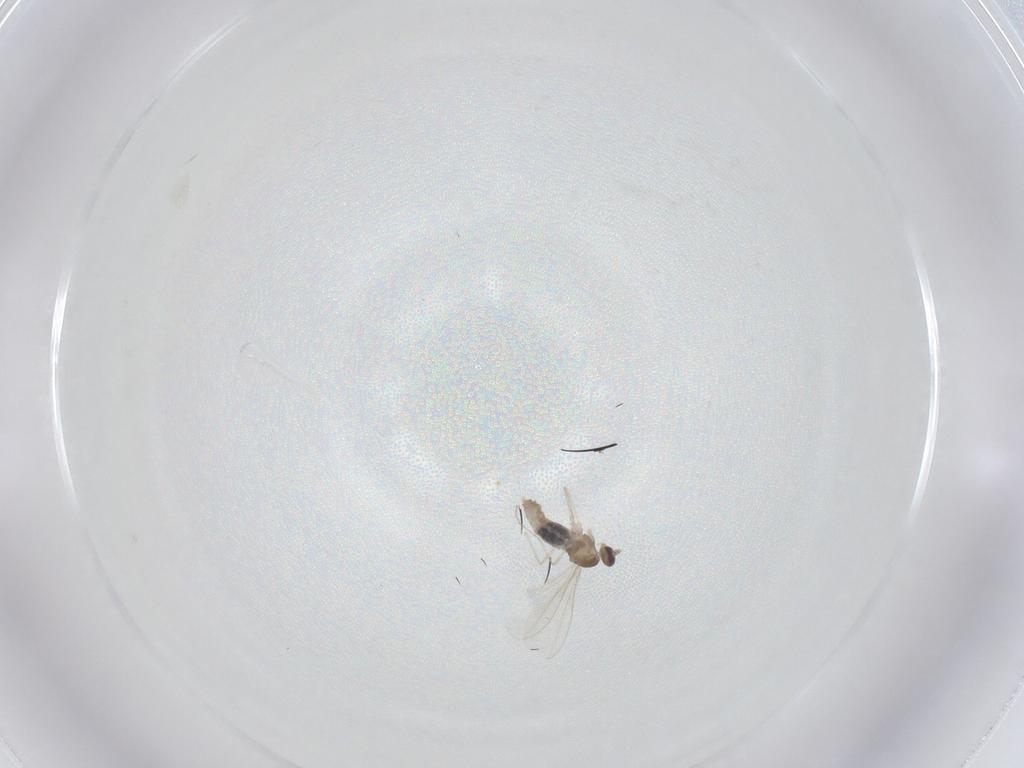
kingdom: Animalia
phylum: Arthropoda
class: Insecta
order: Diptera
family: Cecidomyiidae
